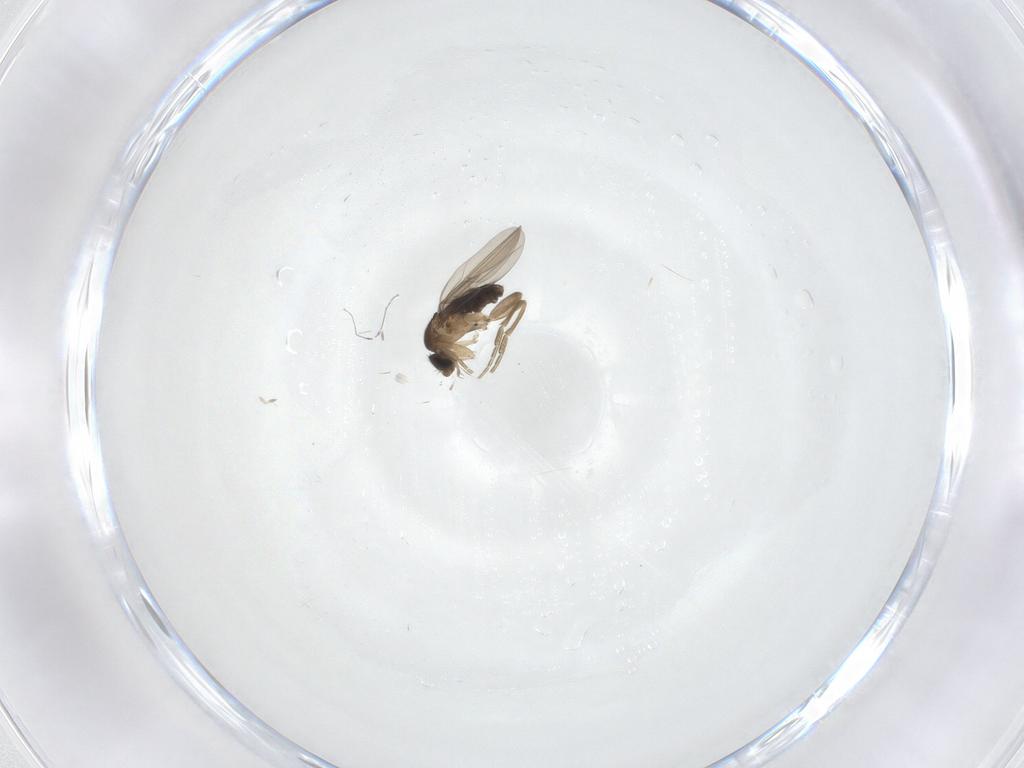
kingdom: Animalia
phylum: Arthropoda
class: Insecta
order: Diptera
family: Phoridae
